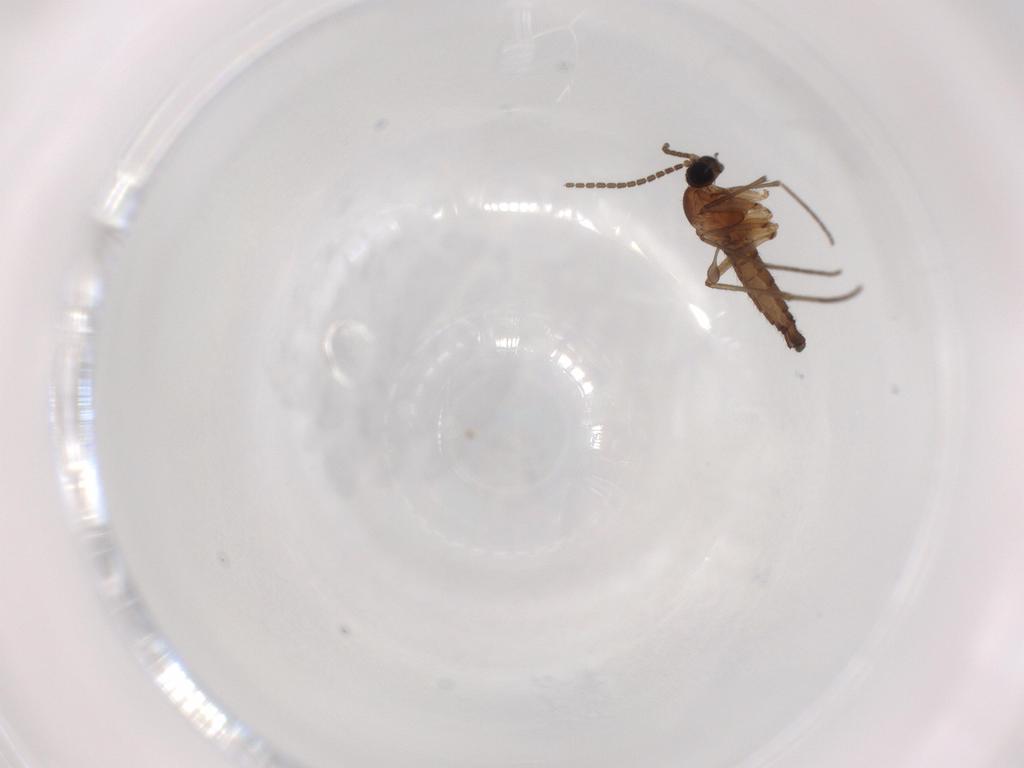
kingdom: Animalia
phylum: Arthropoda
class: Insecta
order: Diptera
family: Sciaridae
